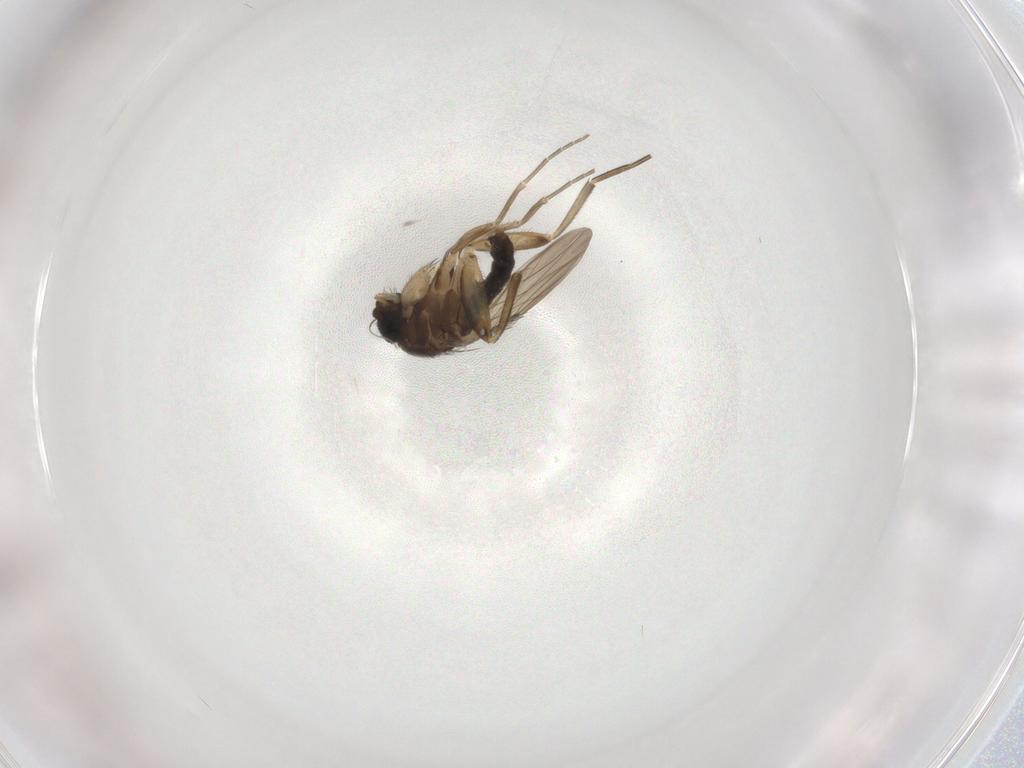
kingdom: Animalia
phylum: Arthropoda
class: Insecta
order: Diptera
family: Phoridae
